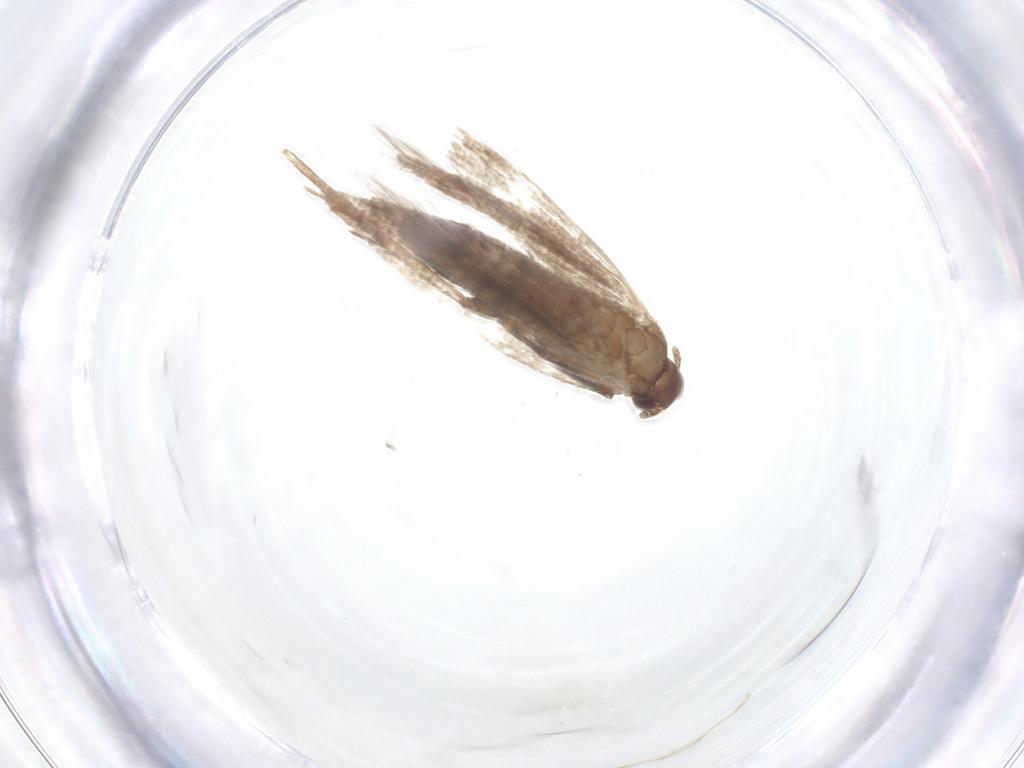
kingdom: Animalia
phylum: Arthropoda
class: Insecta
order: Lepidoptera
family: Gelechiidae
